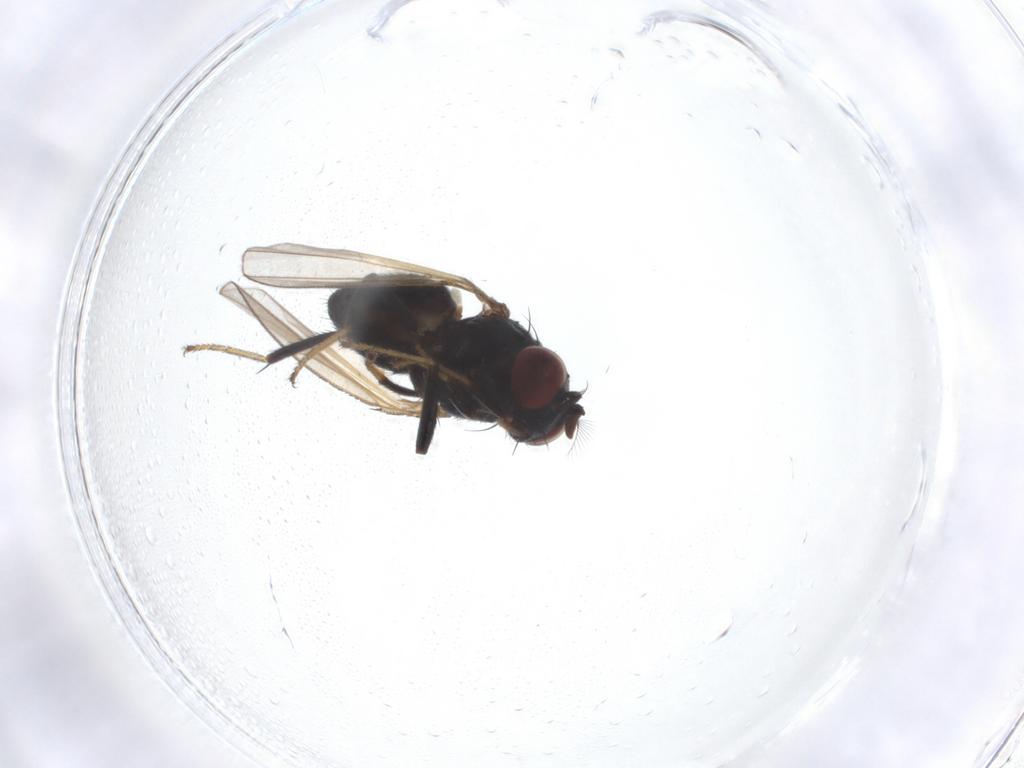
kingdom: Animalia
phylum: Arthropoda
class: Insecta
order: Diptera
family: Ephydridae
